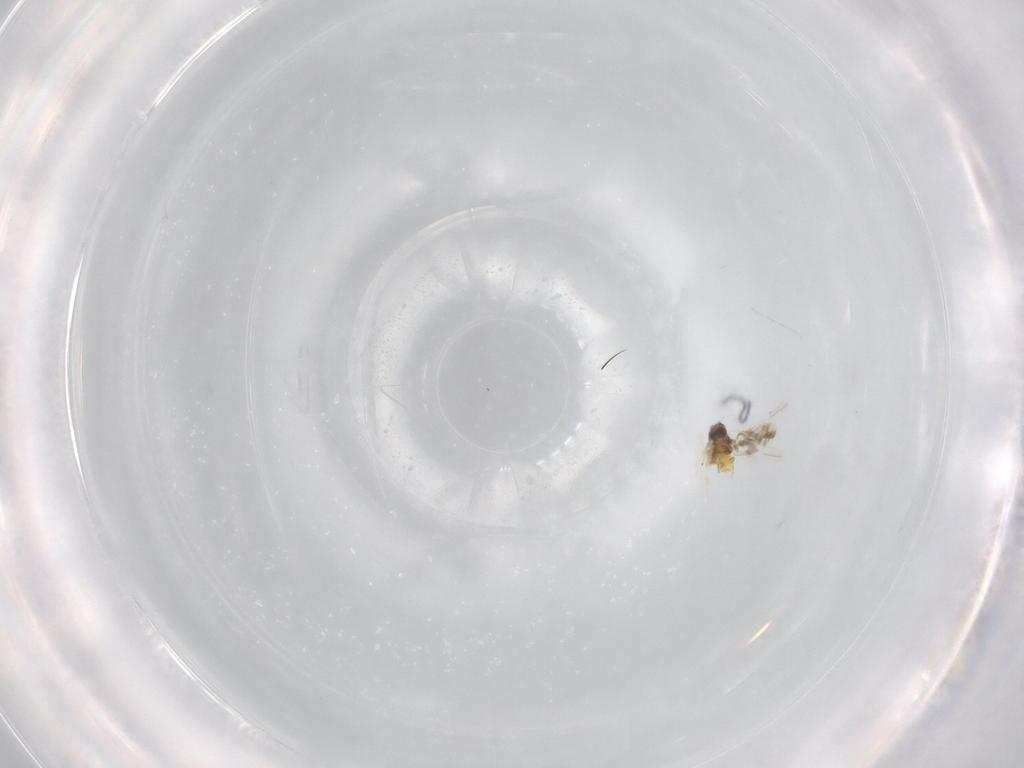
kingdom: Animalia
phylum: Arthropoda
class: Insecta
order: Hemiptera
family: Aleyrodidae
